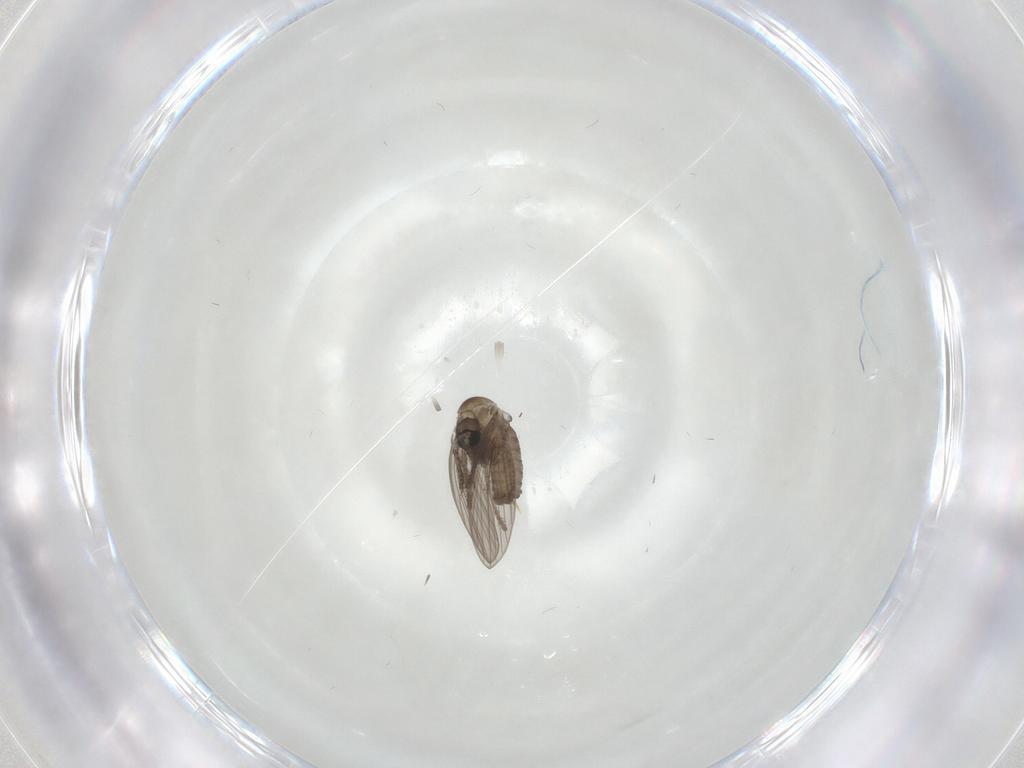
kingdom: Animalia
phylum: Arthropoda
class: Insecta
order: Diptera
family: Psychodidae
